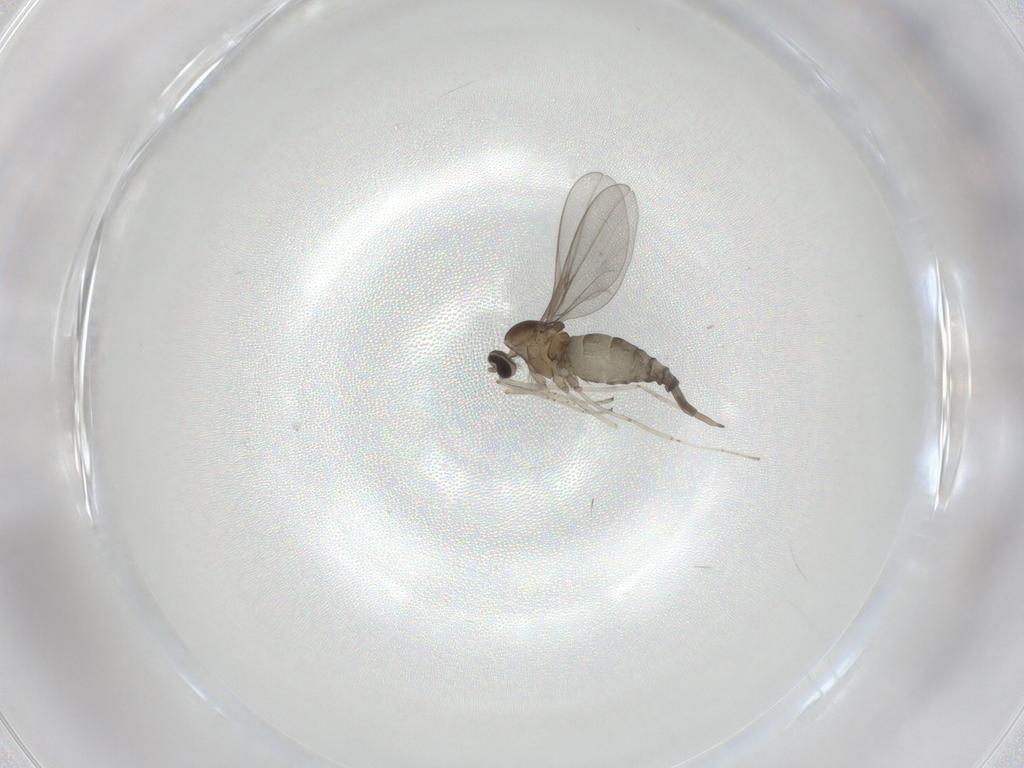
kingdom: Animalia
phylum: Arthropoda
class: Insecta
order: Diptera
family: Cecidomyiidae
